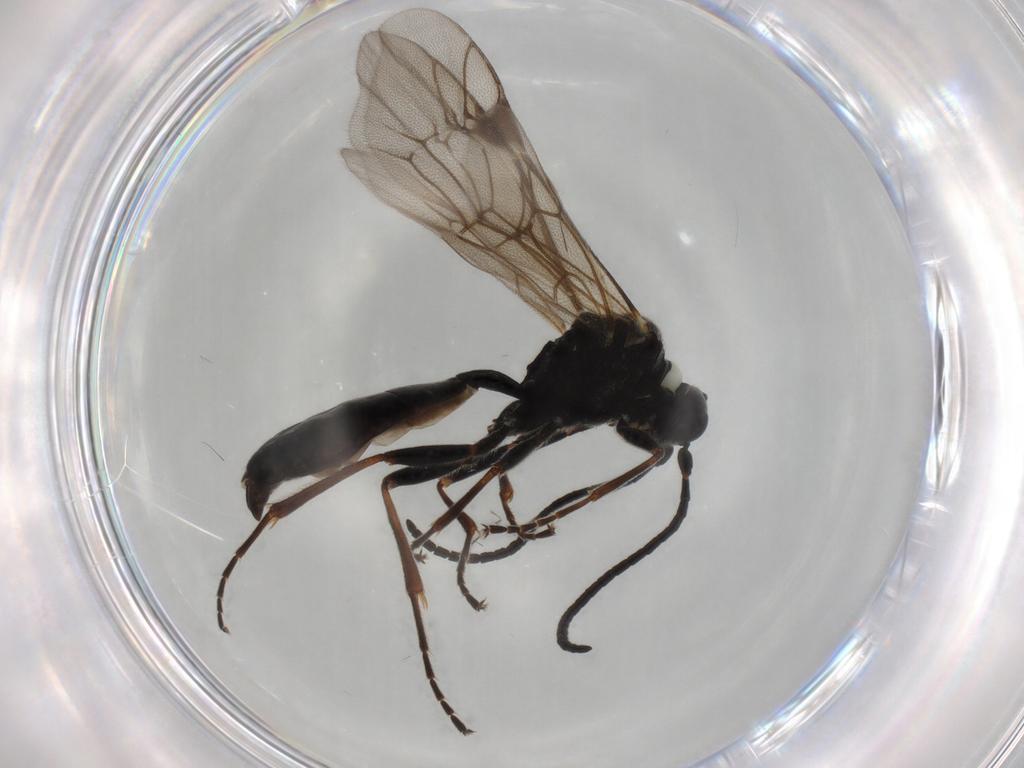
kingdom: Animalia
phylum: Arthropoda
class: Insecta
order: Hymenoptera
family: Ichneumonidae
